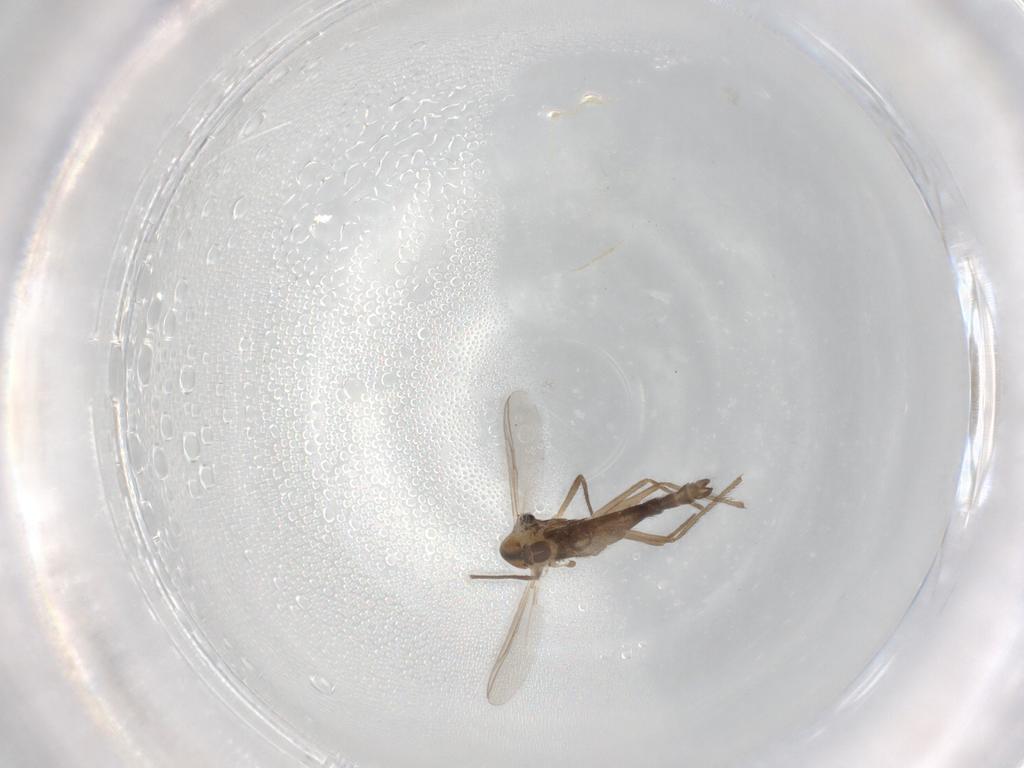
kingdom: Animalia
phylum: Arthropoda
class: Insecta
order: Diptera
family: Chironomidae
